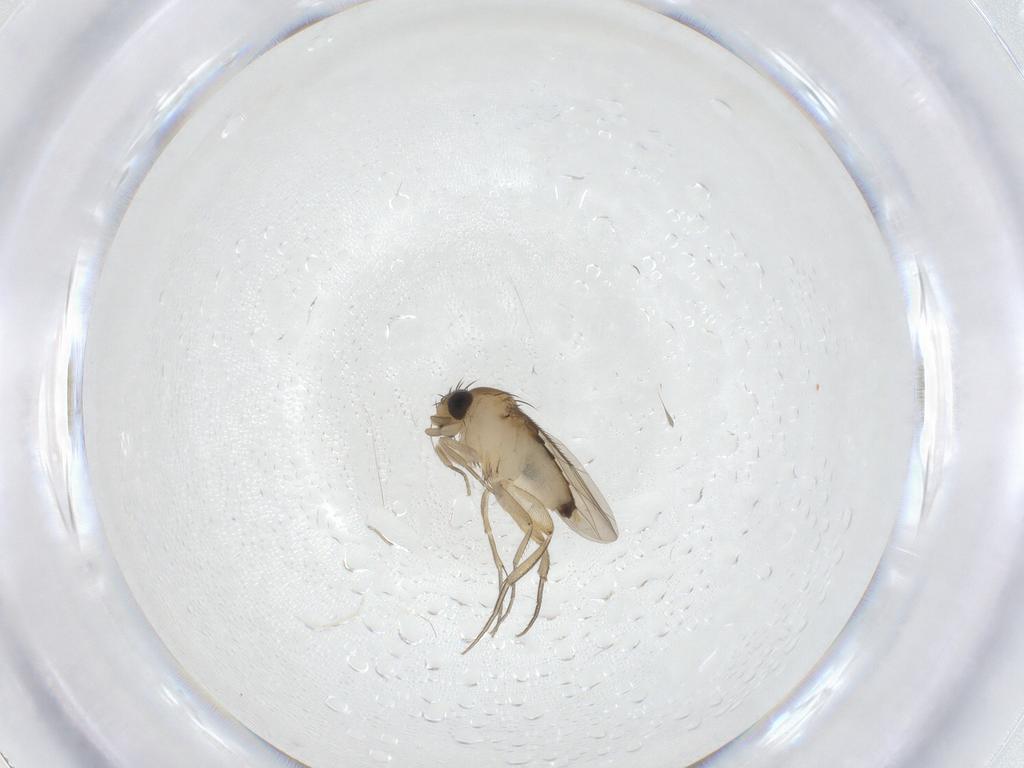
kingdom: Animalia
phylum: Arthropoda
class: Insecta
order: Diptera
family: Phoridae
